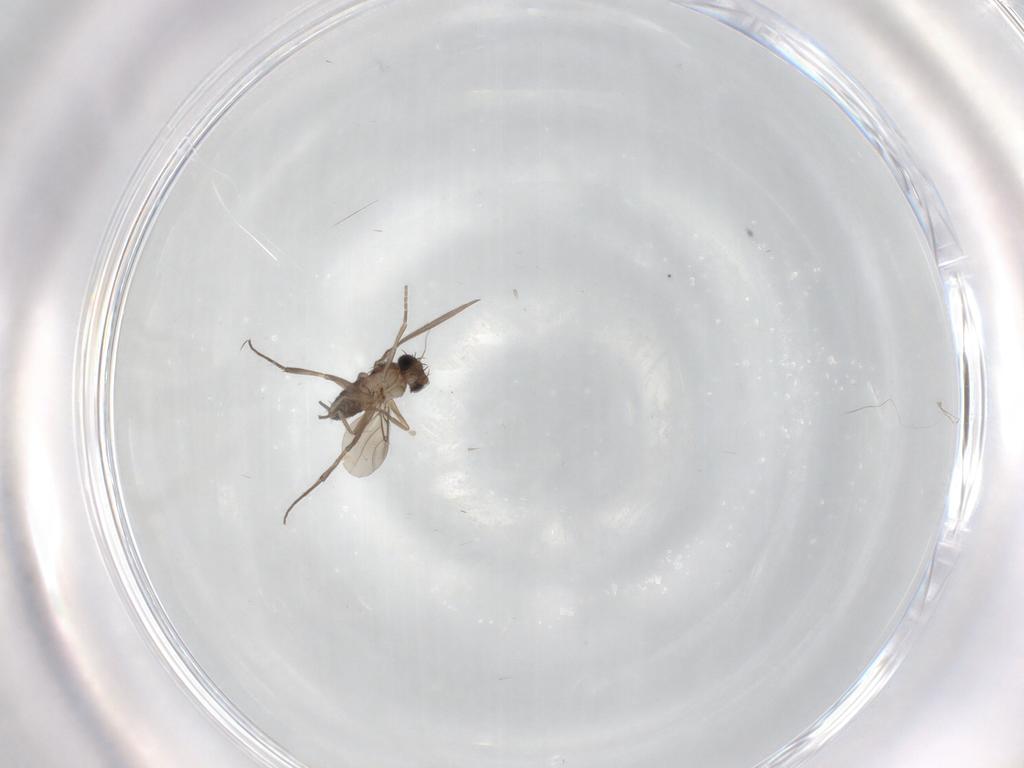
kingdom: Animalia
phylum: Arthropoda
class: Insecta
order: Diptera
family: Phoridae
